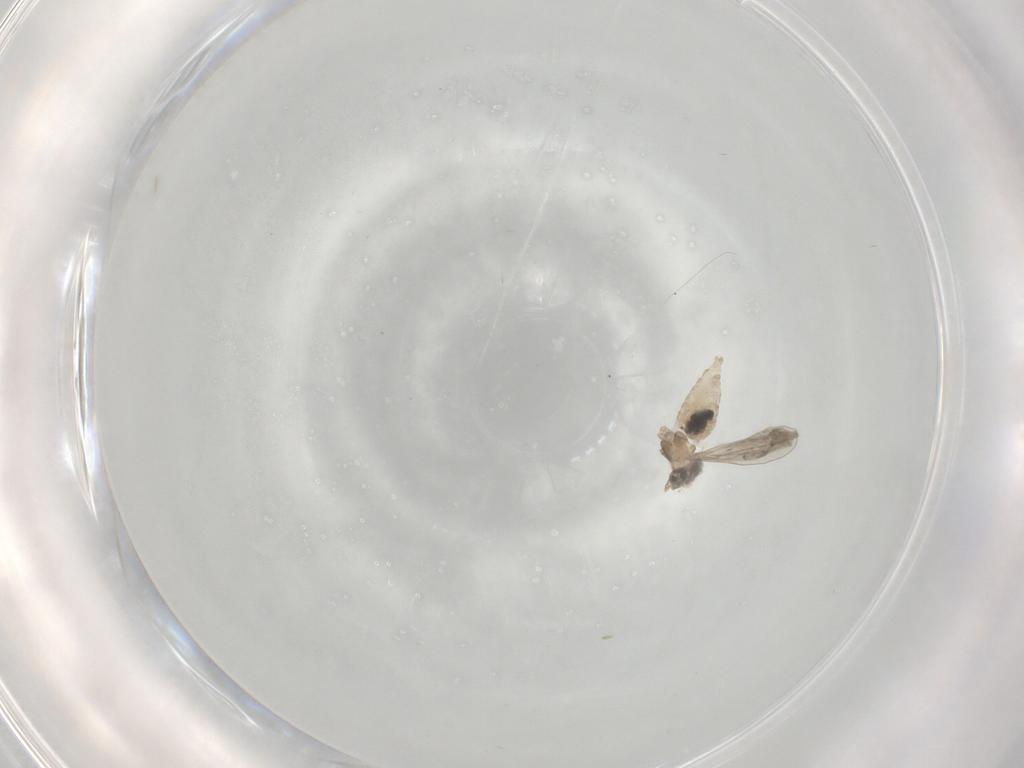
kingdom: Animalia
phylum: Arthropoda
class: Insecta
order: Diptera
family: Cecidomyiidae
